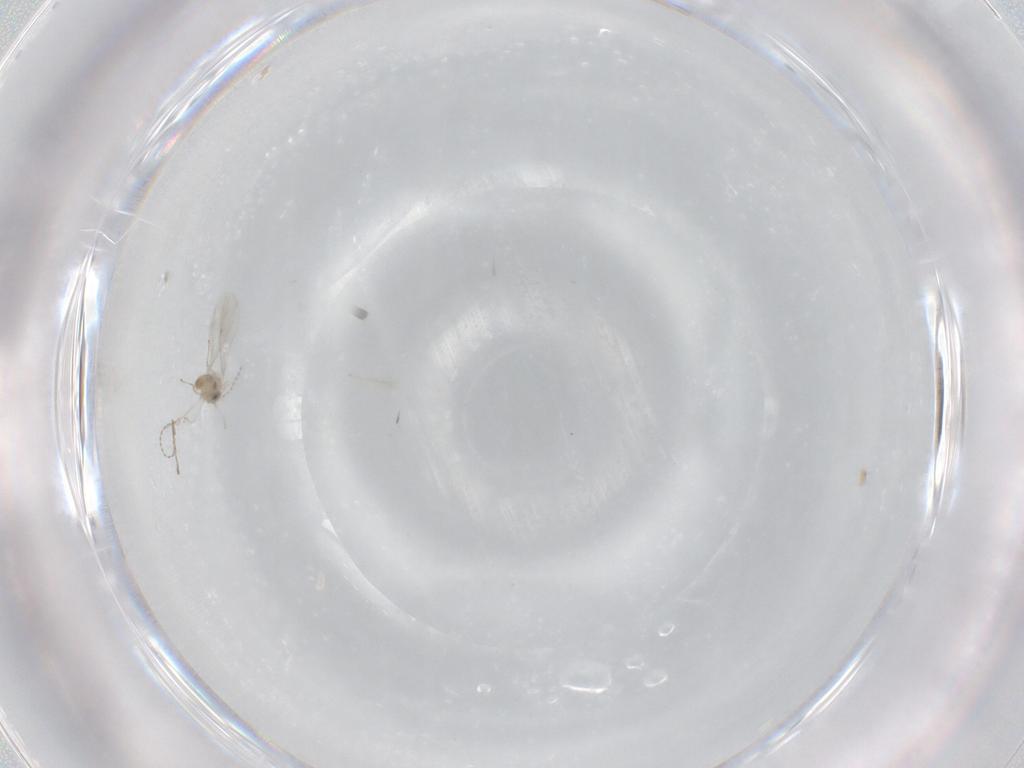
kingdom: Animalia
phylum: Arthropoda
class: Insecta
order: Diptera
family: Cecidomyiidae
